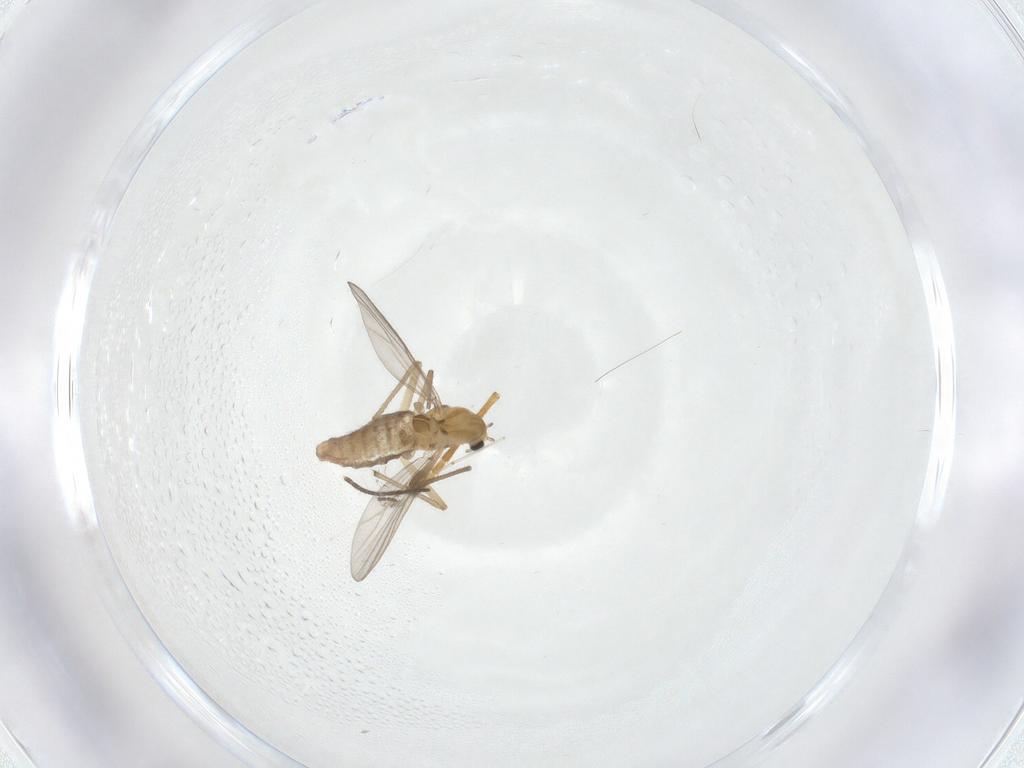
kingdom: Animalia
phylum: Arthropoda
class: Insecta
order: Diptera
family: Chironomidae
